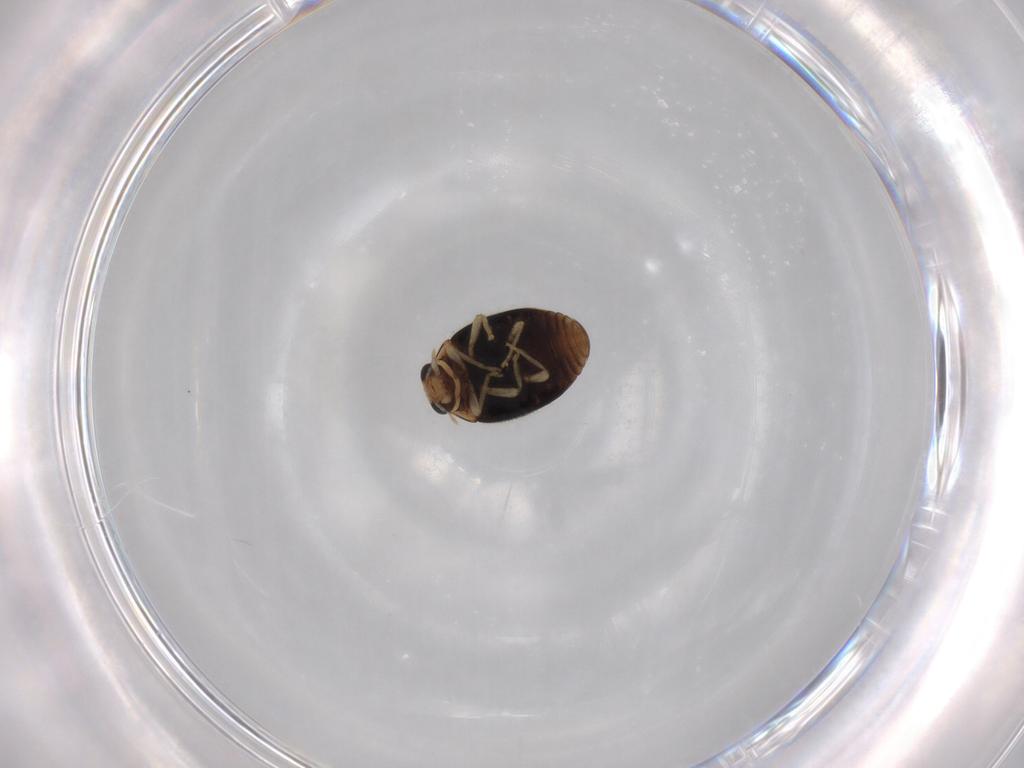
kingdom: Animalia
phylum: Arthropoda
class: Insecta
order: Coleoptera
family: Coccinellidae
